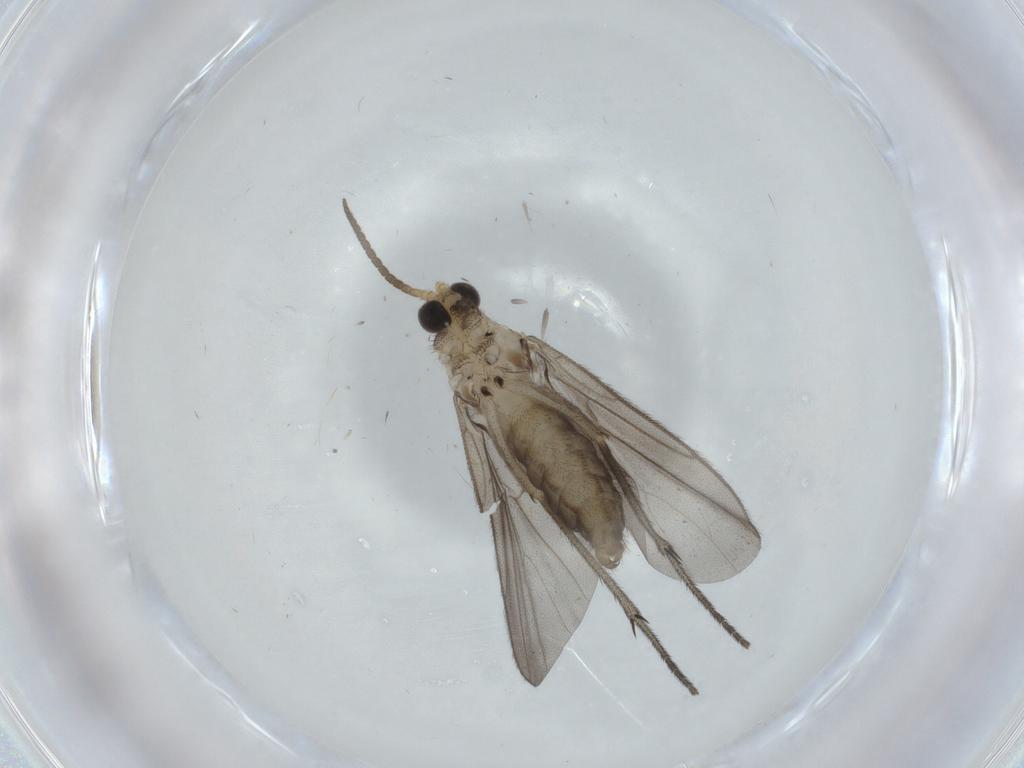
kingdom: Animalia
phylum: Arthropoda
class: Insecta
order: Diptera
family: Mycetophilidae
